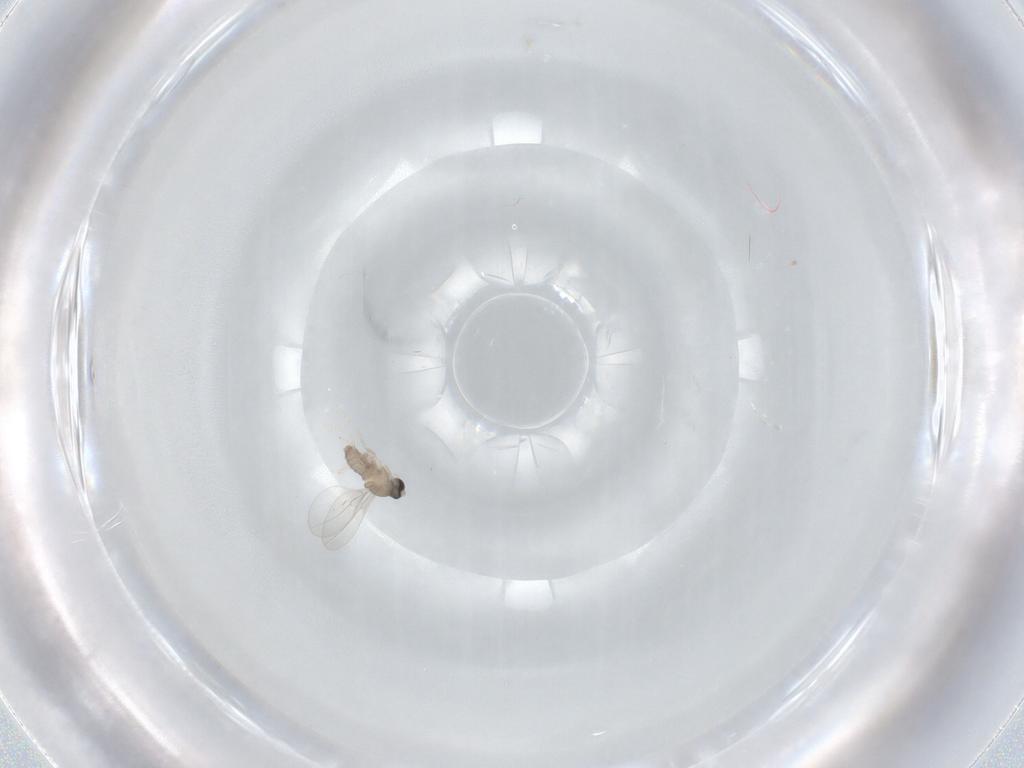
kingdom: Animalia
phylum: Arthropoda
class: Insecta
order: Diptera
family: Cecidomyiidae
